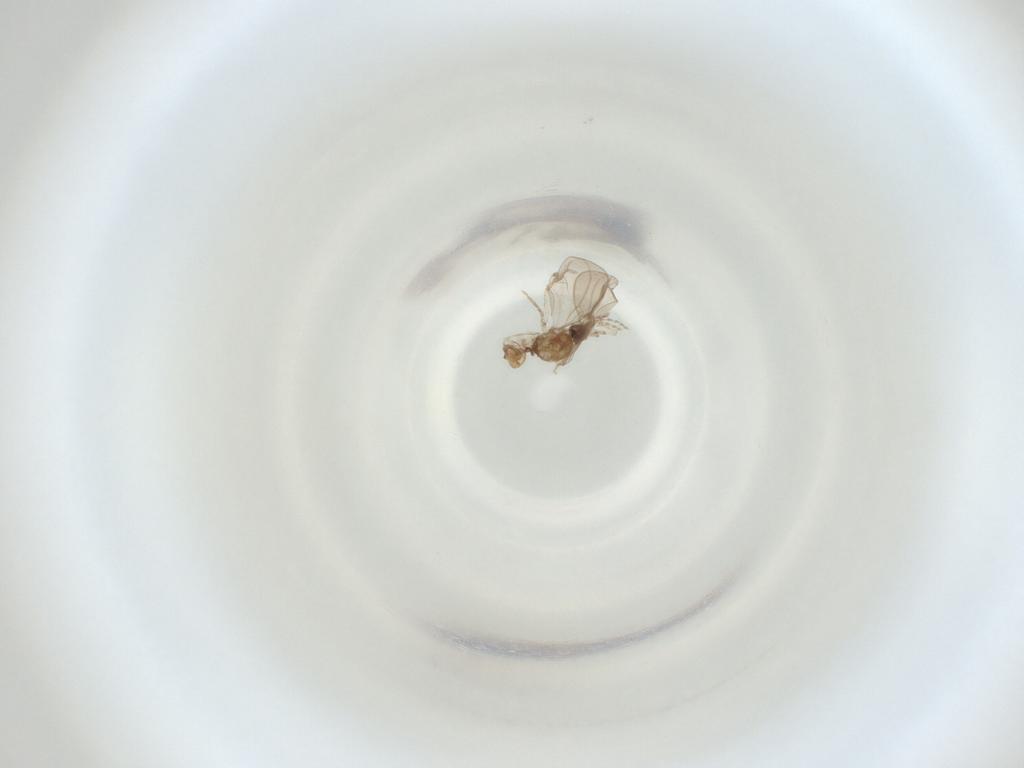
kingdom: Animalia
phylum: Arthropoda
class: Insecta
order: Diptera
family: Cecidomyiidae
